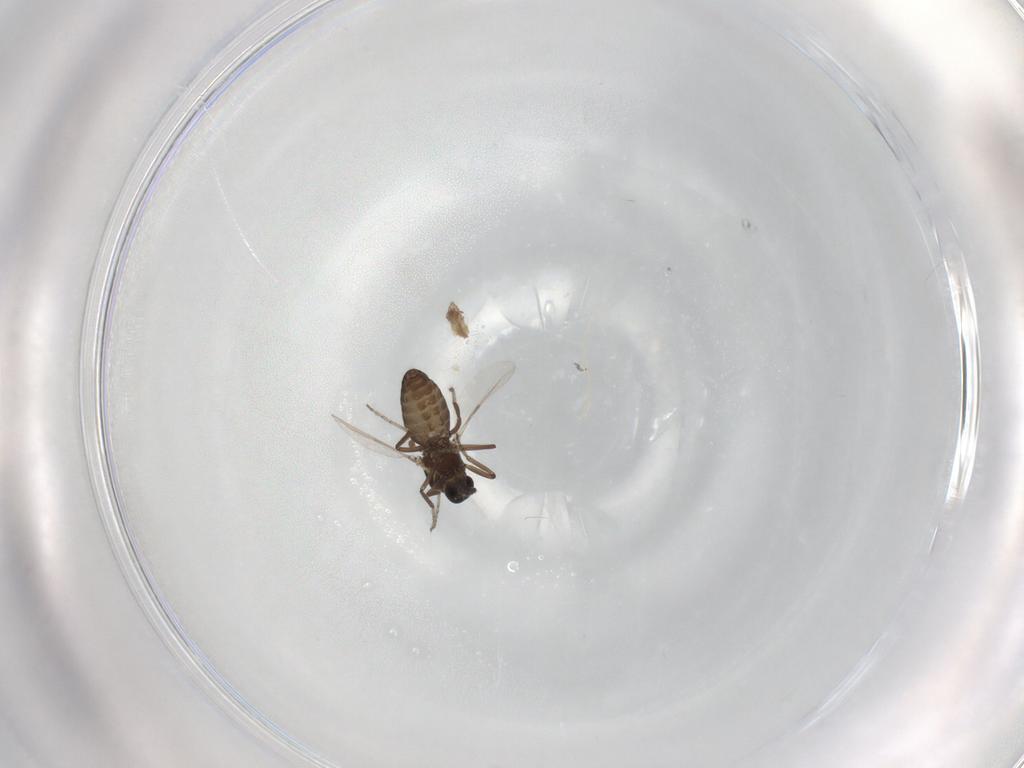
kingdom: Animalia
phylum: Arthropoda
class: Insecta
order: Diptera
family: Ceratopogonidae
